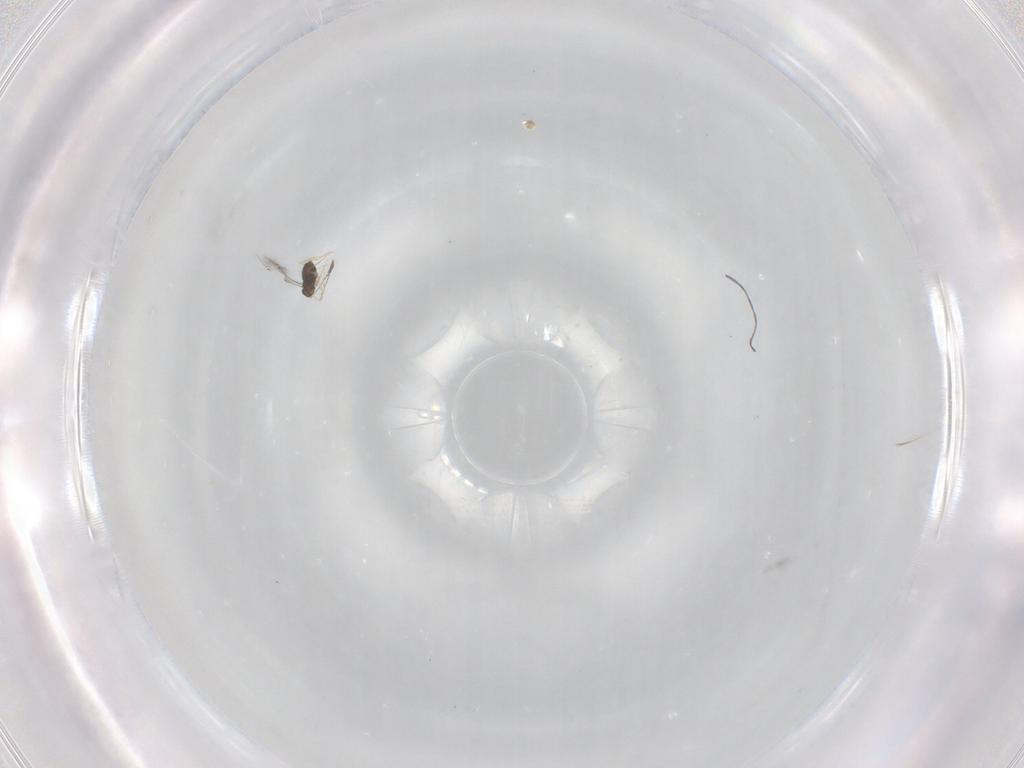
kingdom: Animalia
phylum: Arthropoda
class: Insecta
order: Hymenoptera
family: Mymaridae
